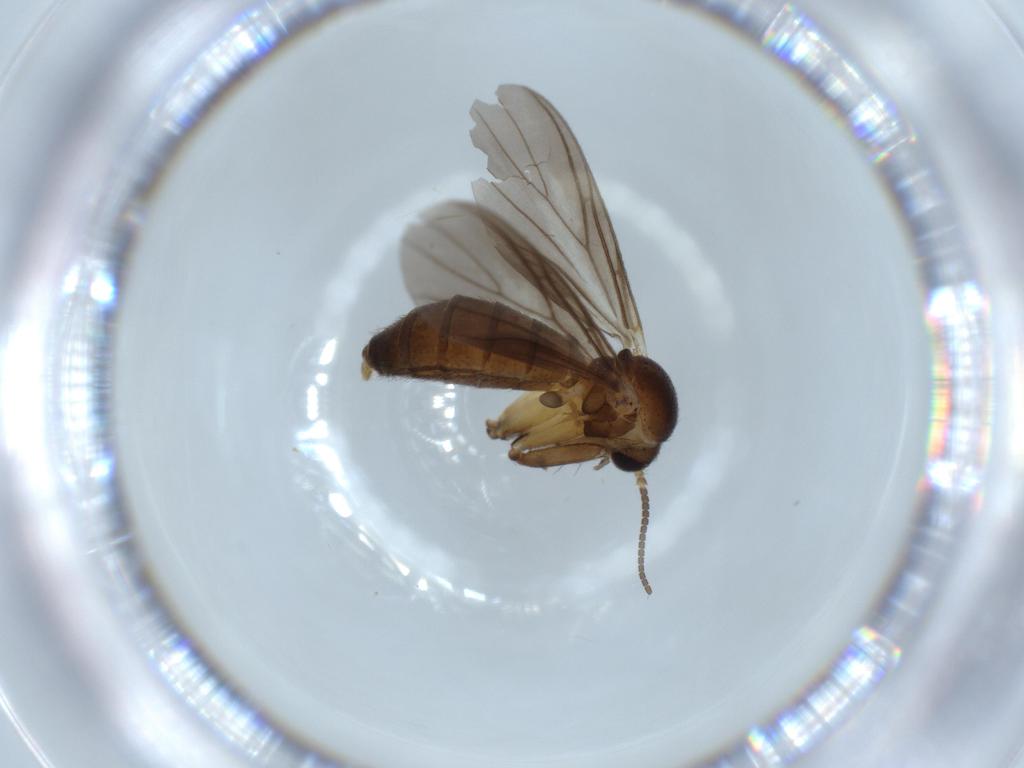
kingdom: Animalia
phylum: Arthropoda
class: Insecta
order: Diptera
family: Mycetophilidae
